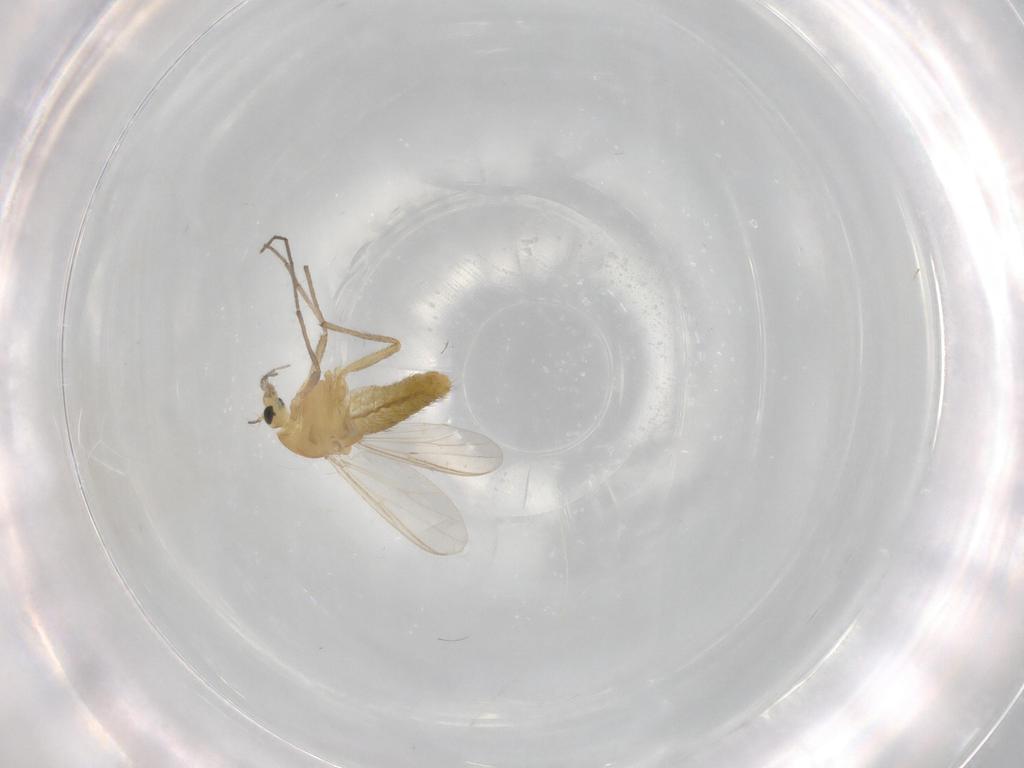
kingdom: Animalia
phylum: Arthropoda
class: Insecta
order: Diptera
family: Chironomidae
